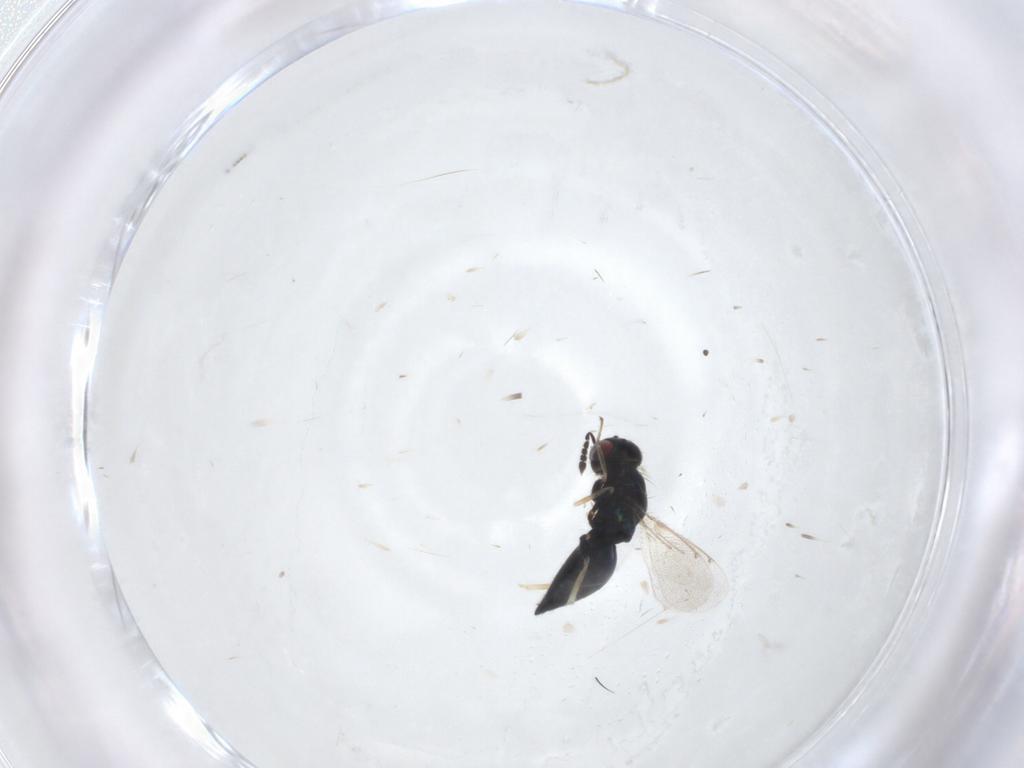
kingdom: Animalia
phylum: Arthropoda
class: Insecta
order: Hymenoptera
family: Eulophidae
